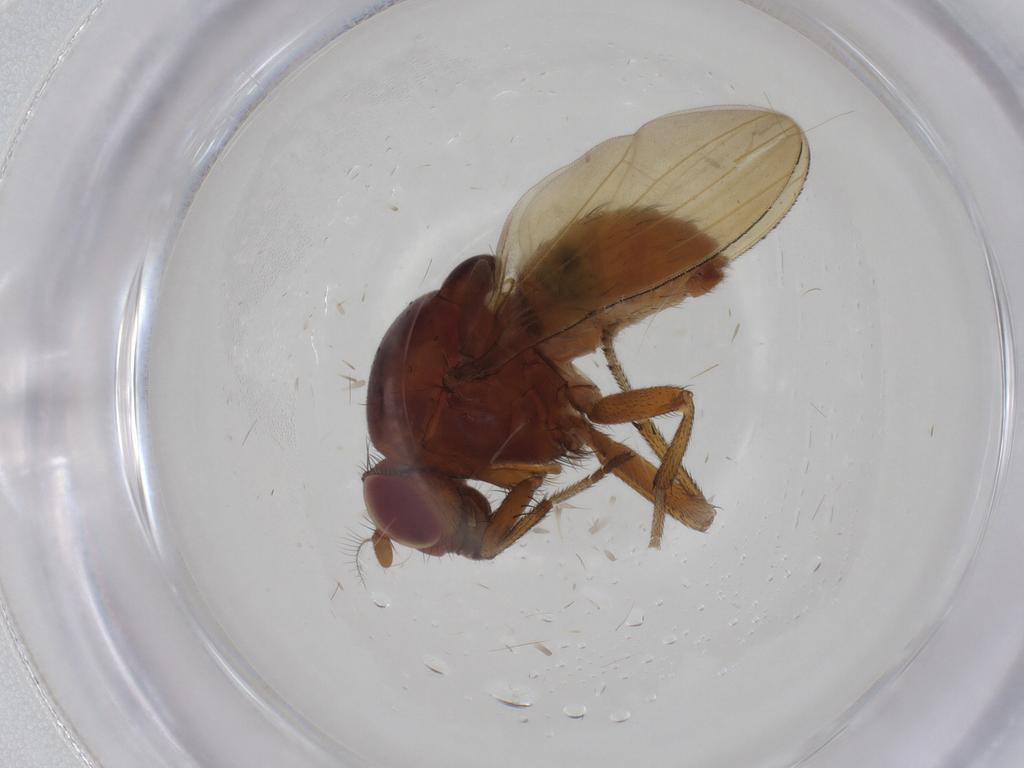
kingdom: Animalia
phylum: Arthropoda
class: Insecta
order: Diptera
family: Lauxaniidae
